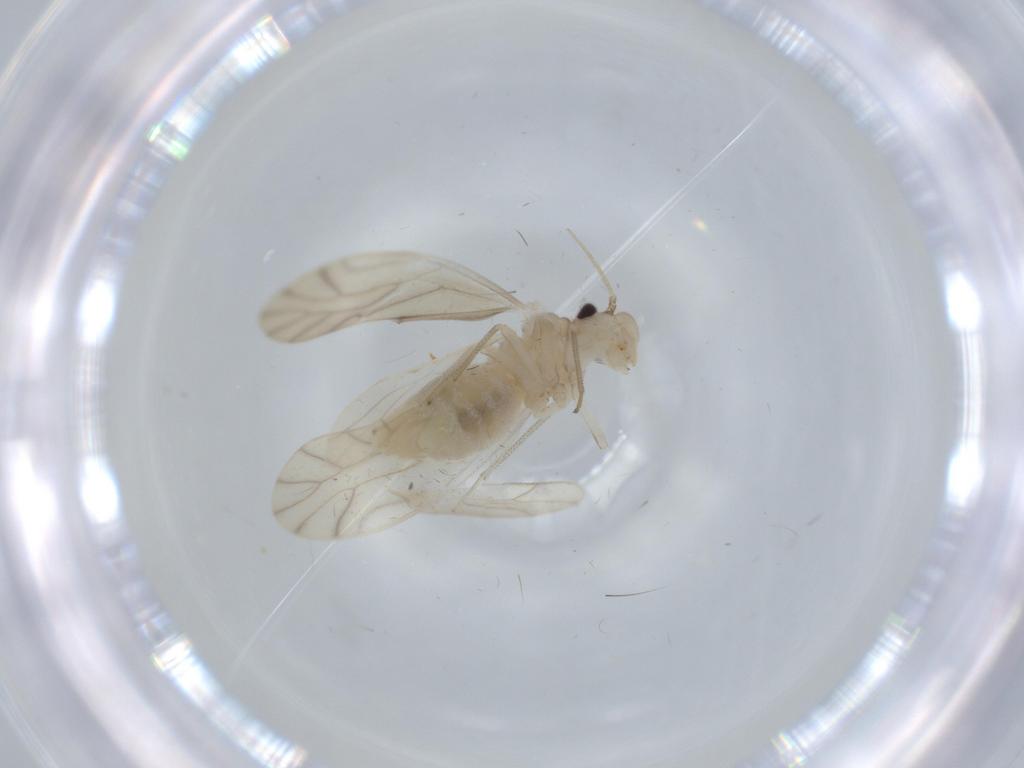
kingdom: Animalia
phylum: Arthropoda
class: Insecta
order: Psocodea
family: Caeciliusidae
